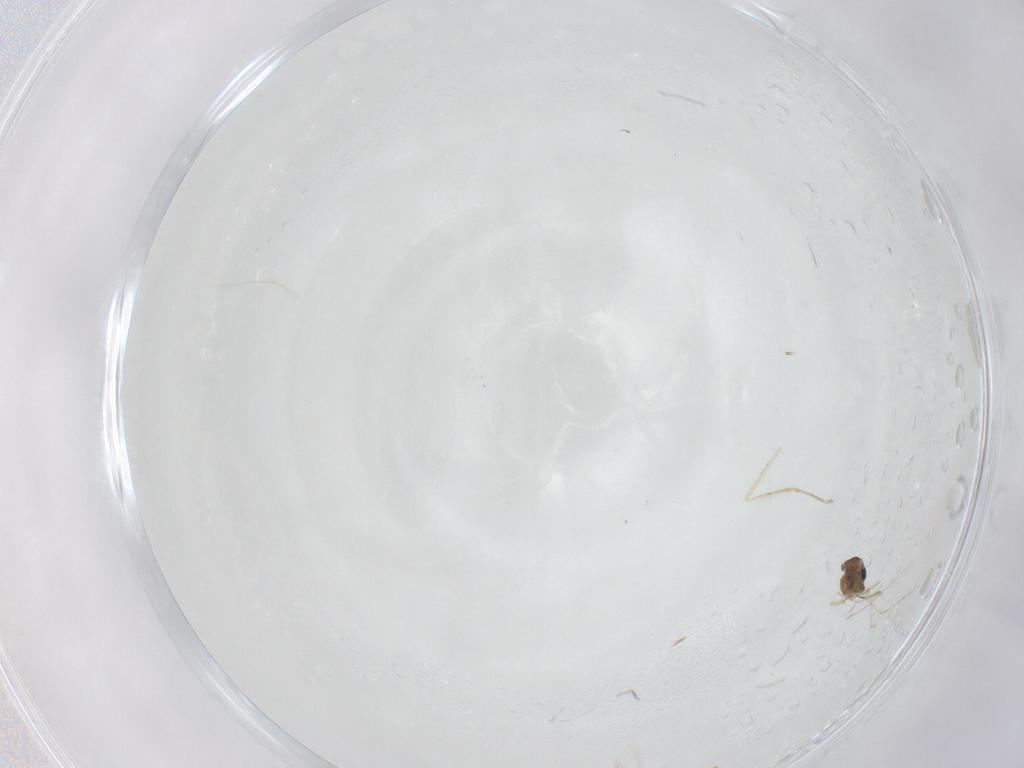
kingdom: Animalia
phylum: Arthropoda
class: Insecta
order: Diptera
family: Cecidomyiidae
